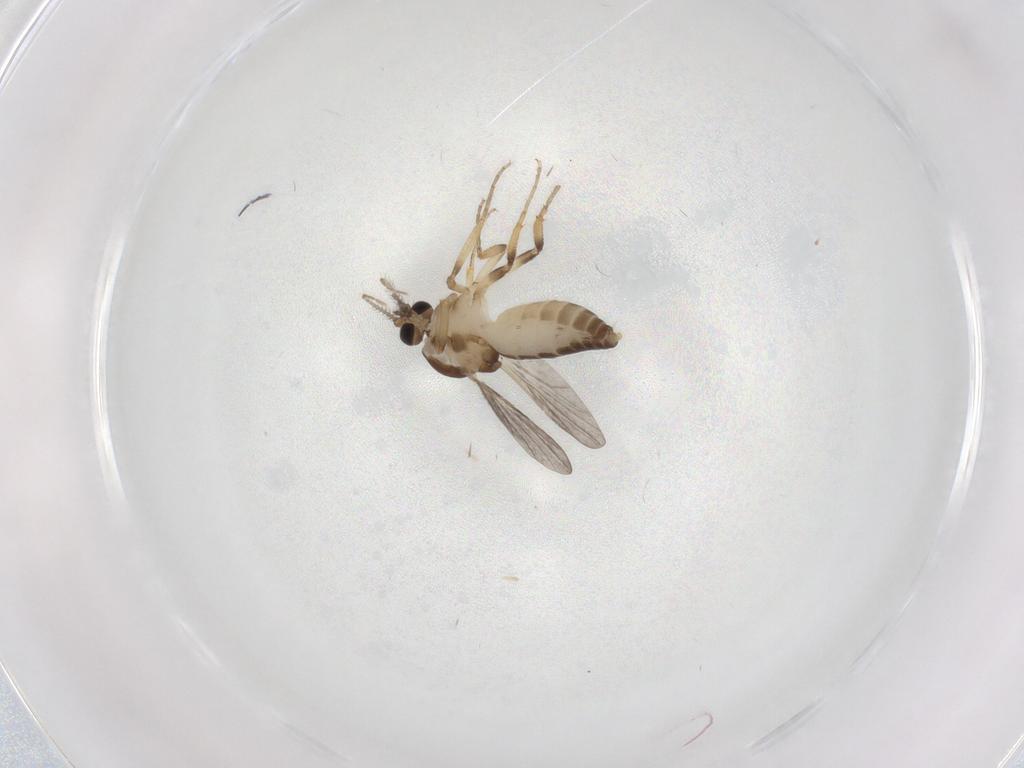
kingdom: Animalia
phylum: Arthropoda
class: Insecta
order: Diptera
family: Ceratopogonidae
